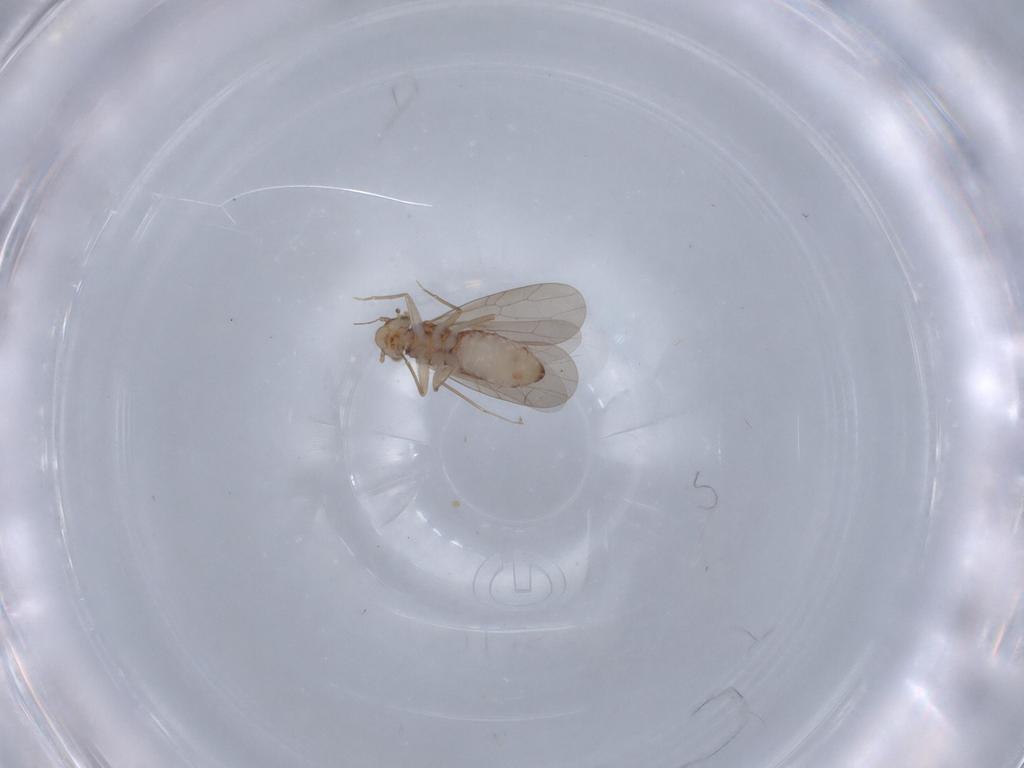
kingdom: Animalia
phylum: Arthropoda
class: Insecta
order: Psocodea
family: Lepidopsocidae
